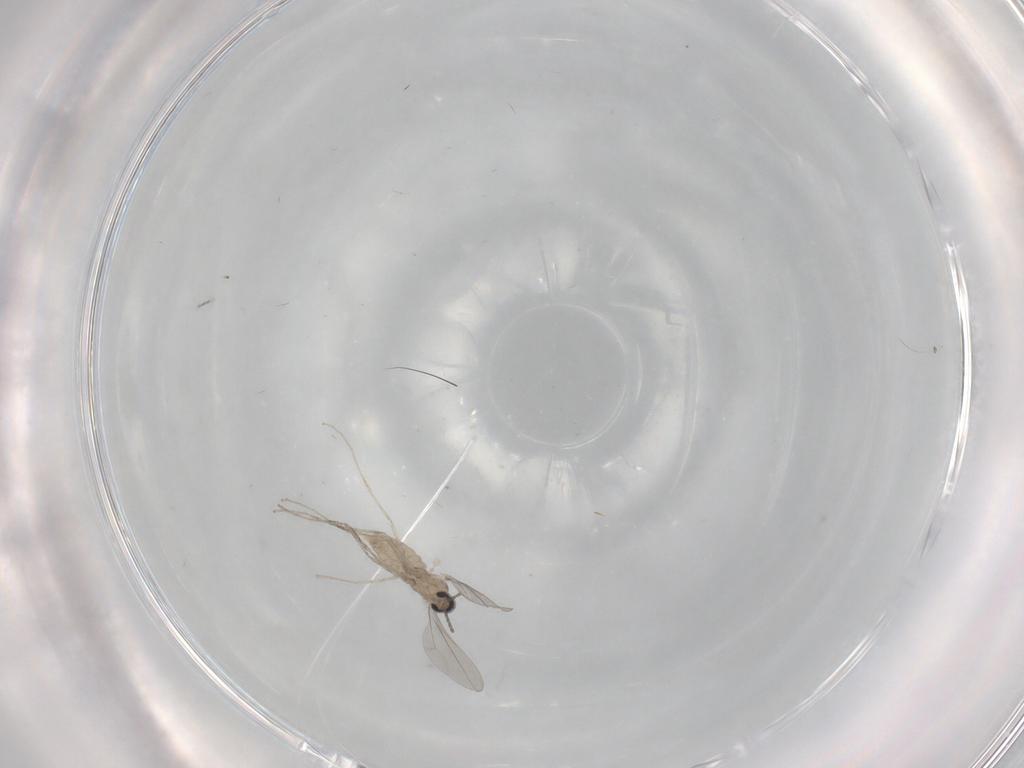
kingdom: Animalia
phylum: Arthropoda
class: Insecta
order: Diptera
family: Cecidomyiidae
